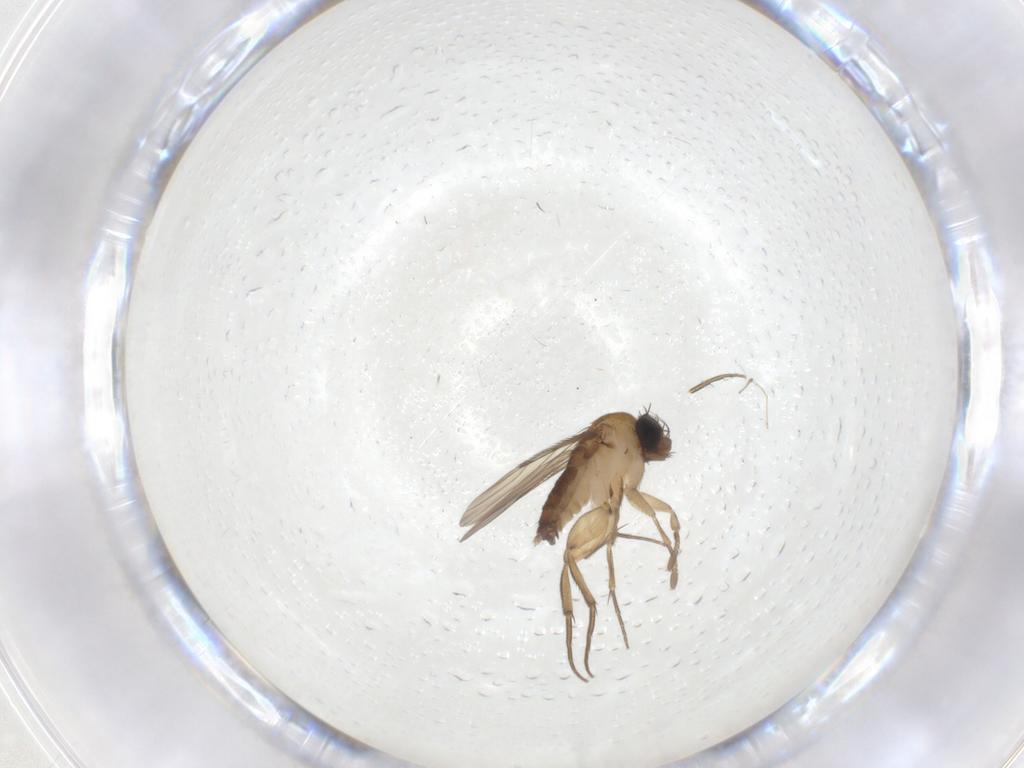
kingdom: Animalia
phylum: Arthropoda
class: Insecta
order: Diptera
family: Phoridae
